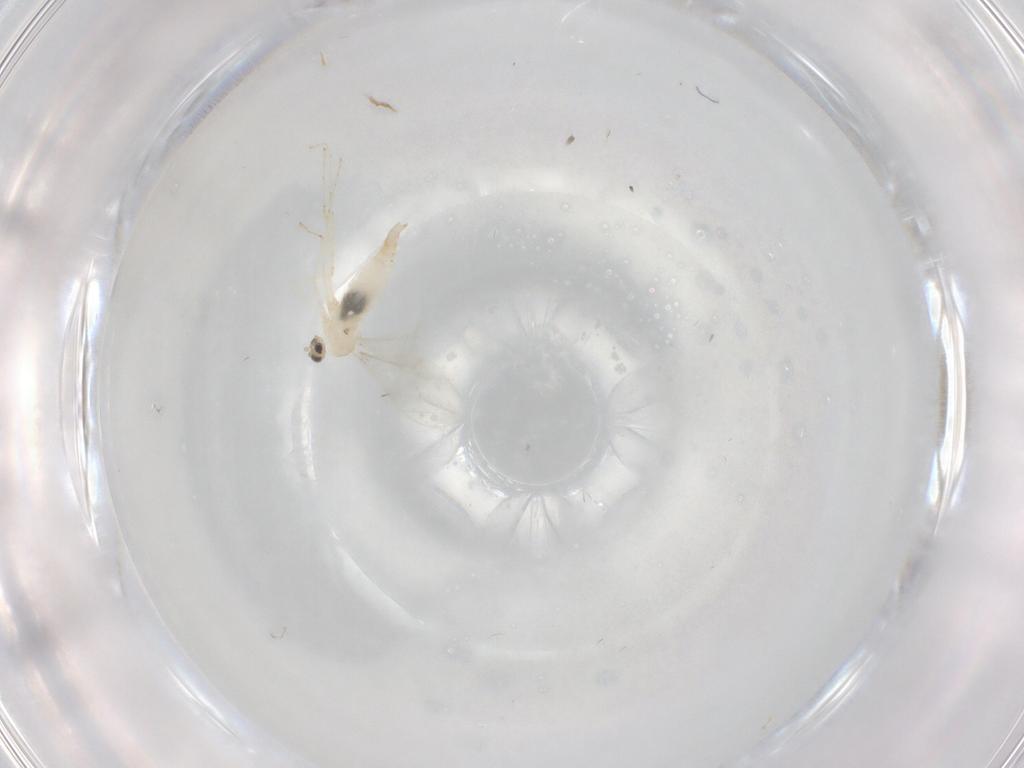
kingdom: Animalia
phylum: Arthropoda
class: Insecta
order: Diptera
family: Cecidomyiidae
